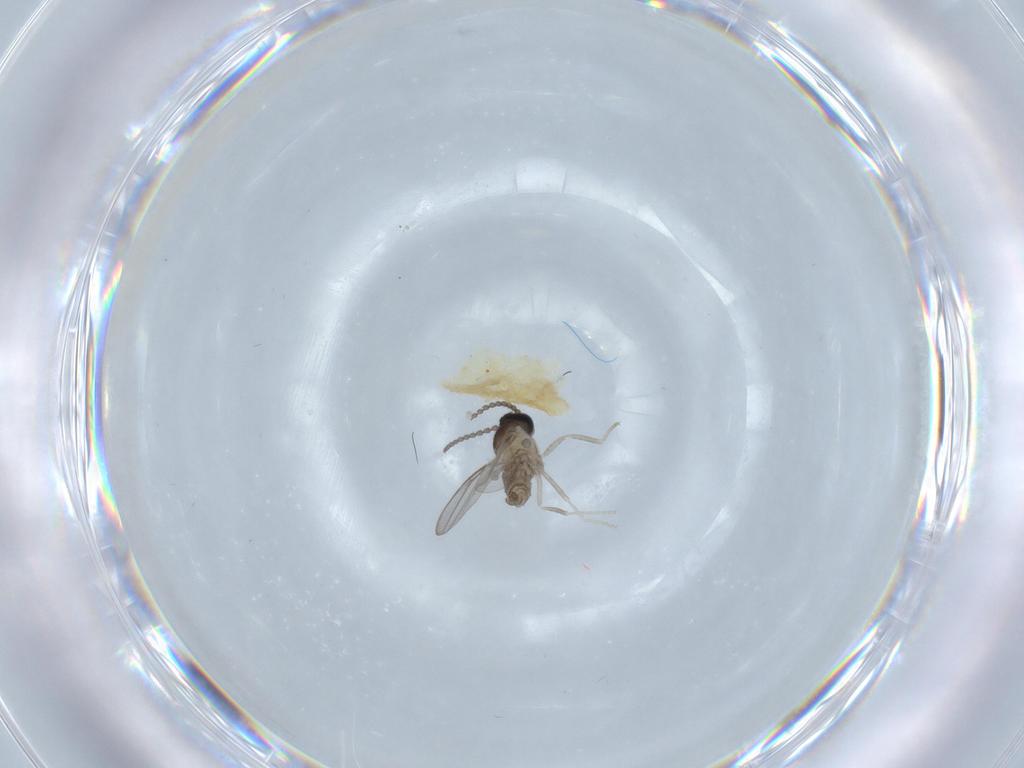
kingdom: Animalia
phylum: Arthropoda
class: Insecta
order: Diptera
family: Cecidomyiidae
